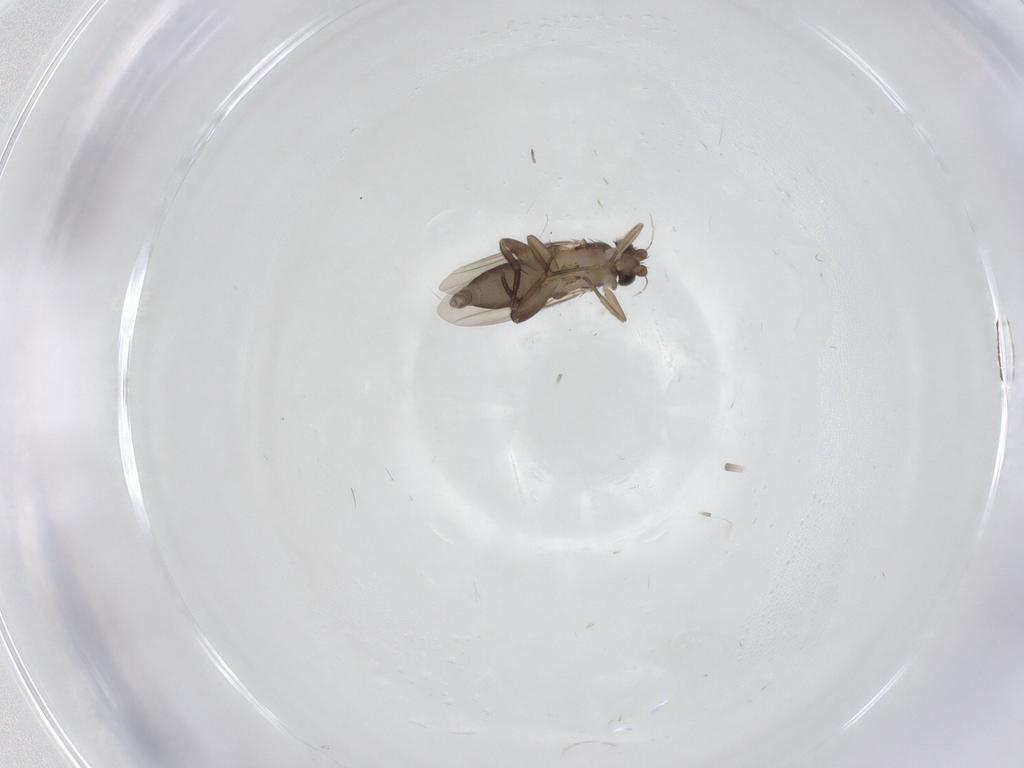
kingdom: Animalia
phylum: Arthropoda
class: Insecta
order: Diptera
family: Phoridae
